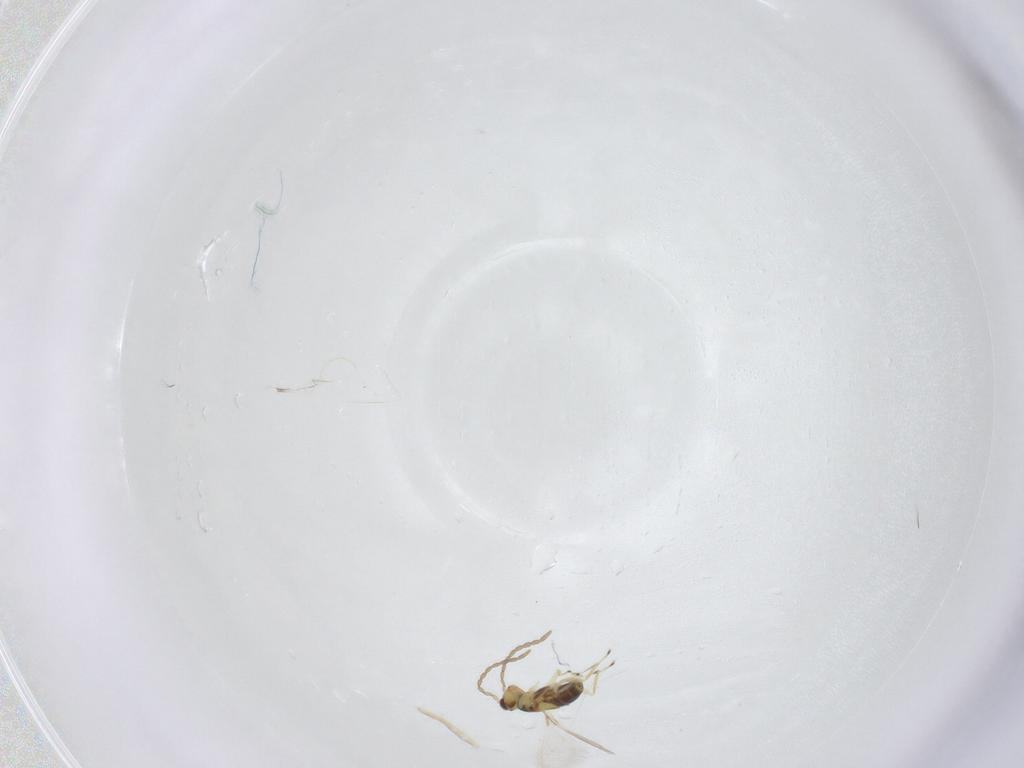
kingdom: Animalia
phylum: Arthropoda
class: Insecta
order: Hymenoptera
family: Mymaridae
